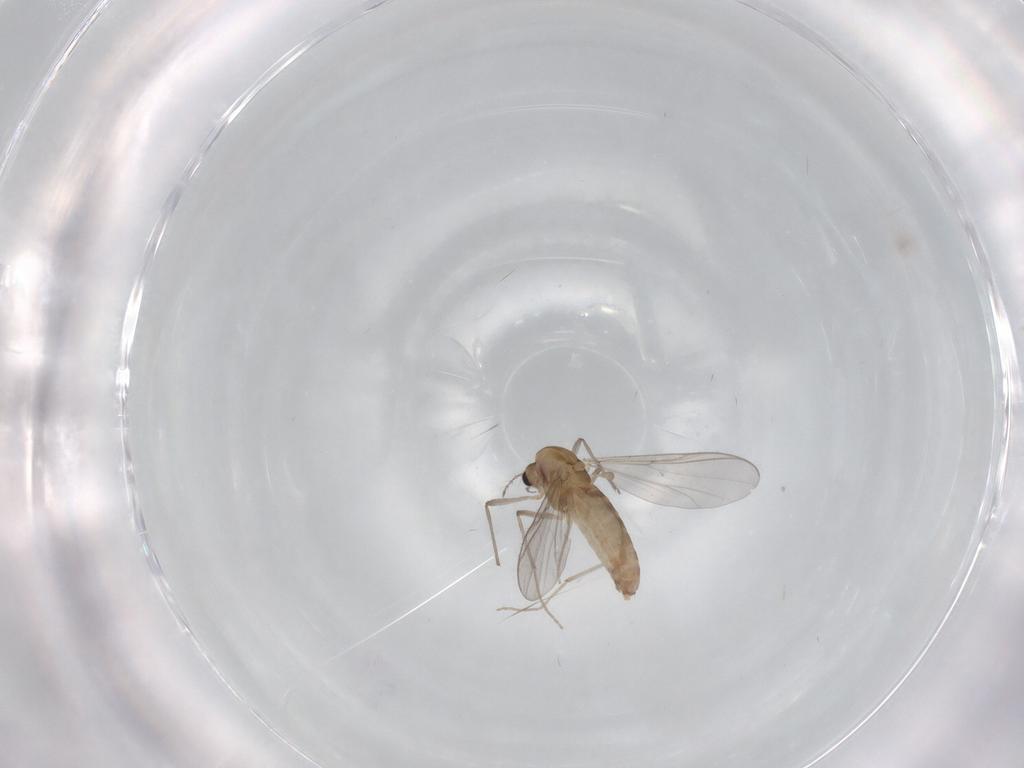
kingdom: Animalia
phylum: Arthropoda
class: Insecta
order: Diptera
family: Chironomidae
